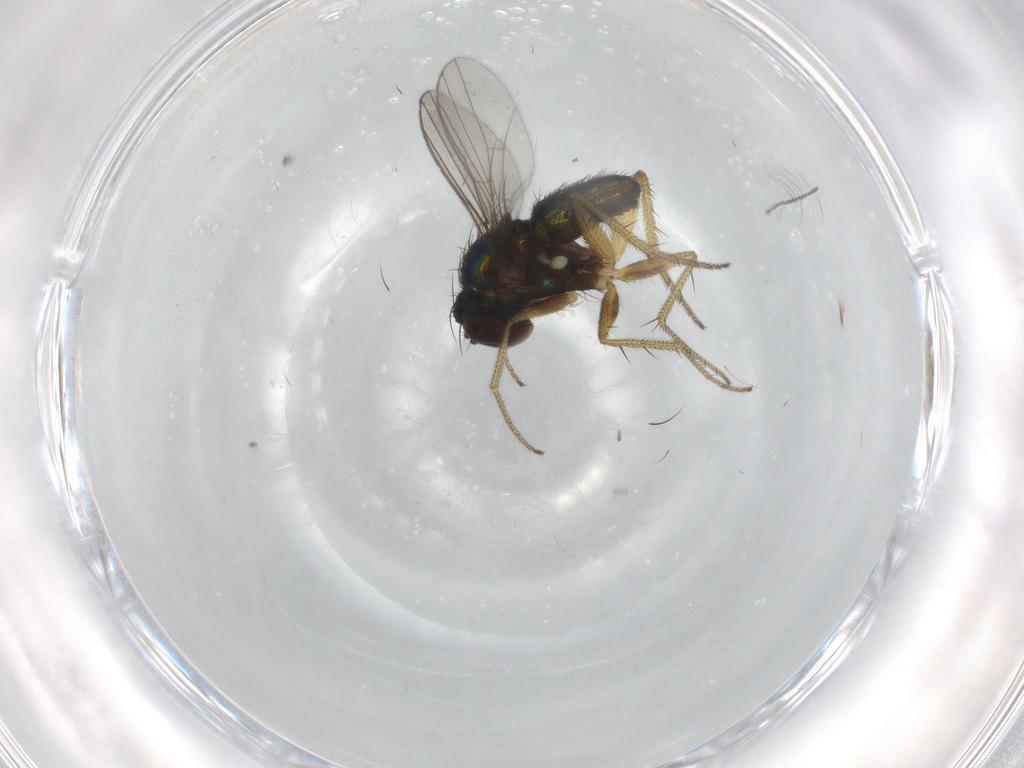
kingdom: Animalia
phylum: Arthropoda
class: Insecta
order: Diptera
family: Chironomidae
